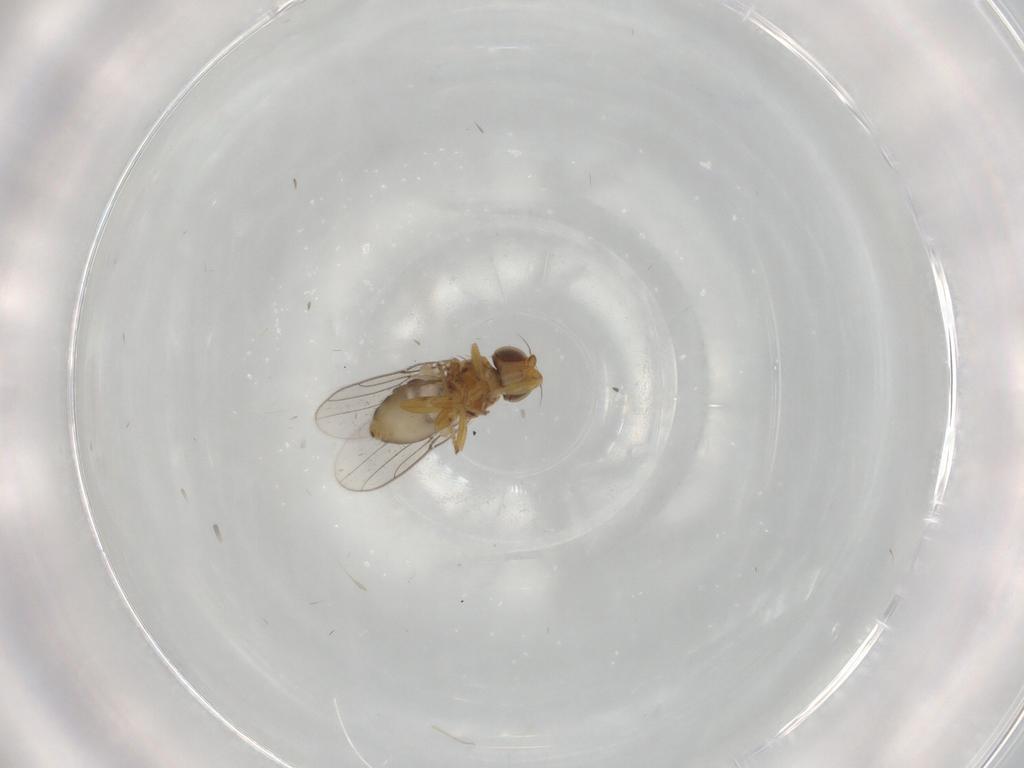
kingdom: Animalia
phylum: Arthropoda
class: Insecta
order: Diptera
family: Chloropidae
